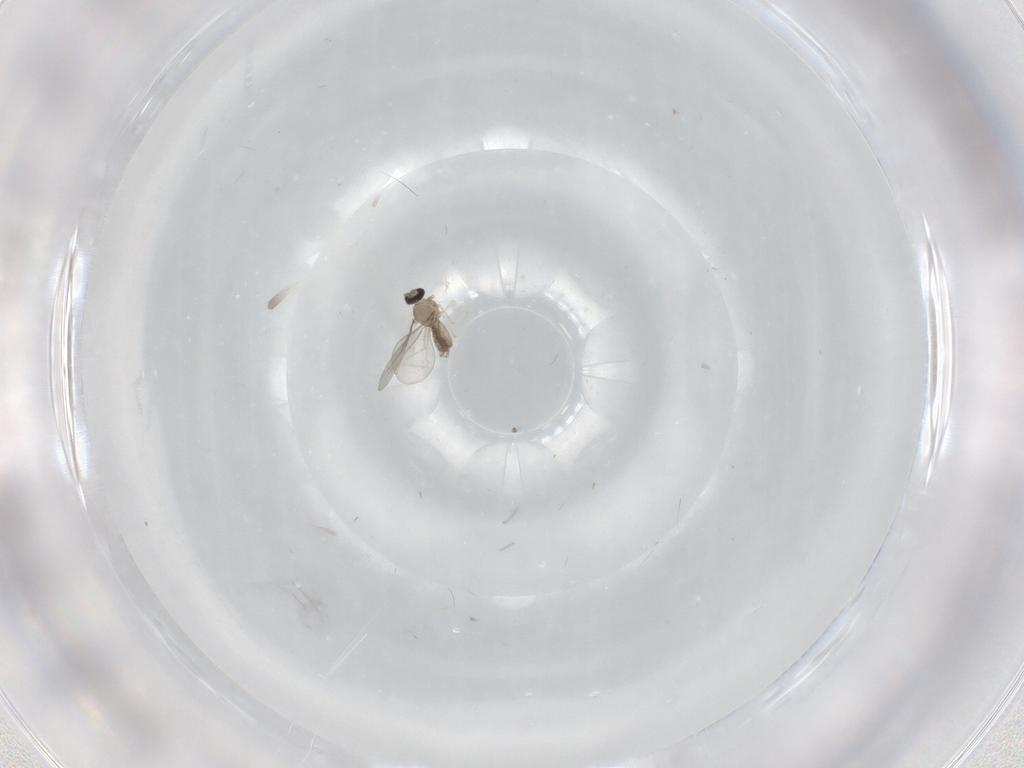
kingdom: Animalia
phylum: Arthropoda
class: Insecta
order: Diptera
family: Cecidomyiidae
